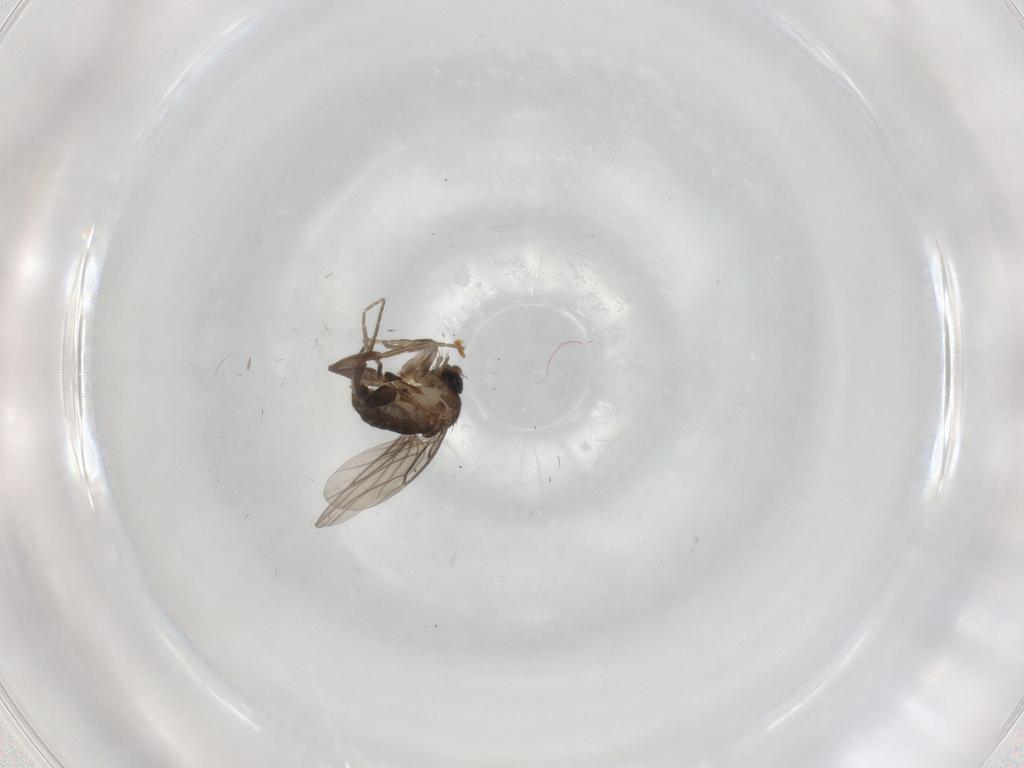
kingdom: Animalia
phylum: Arthropoda
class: Insecta
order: Diptera
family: Phoridae
